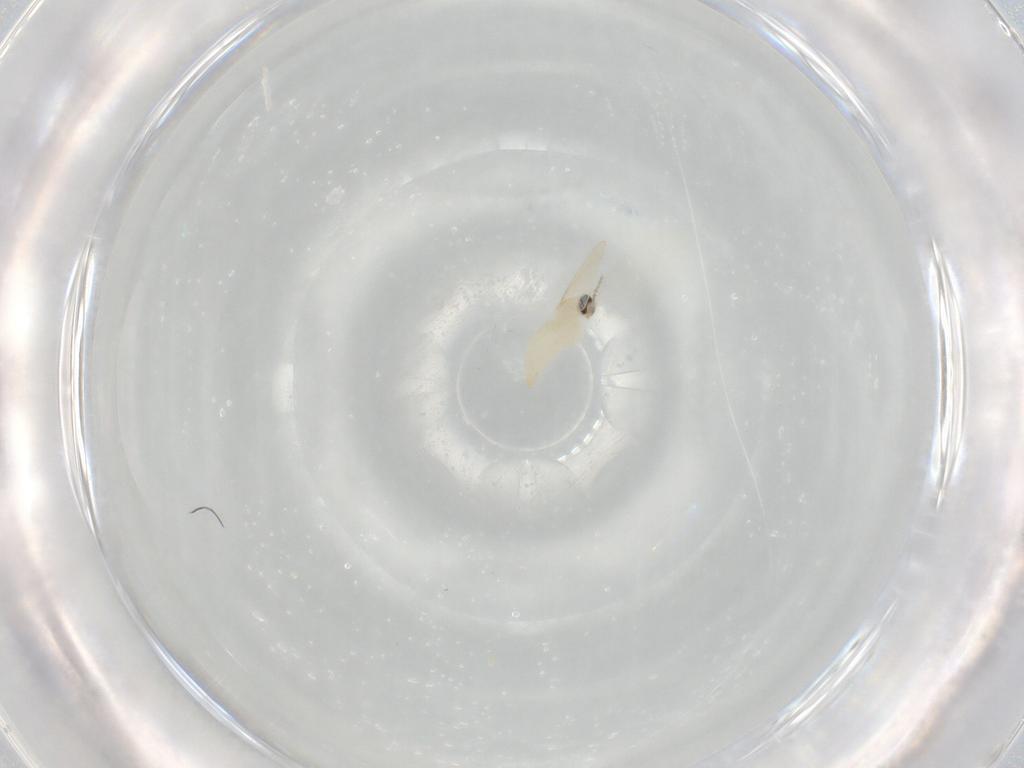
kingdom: Animalia
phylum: Arthropoda
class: Insecta
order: Diptera
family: Cecidomyiidae
